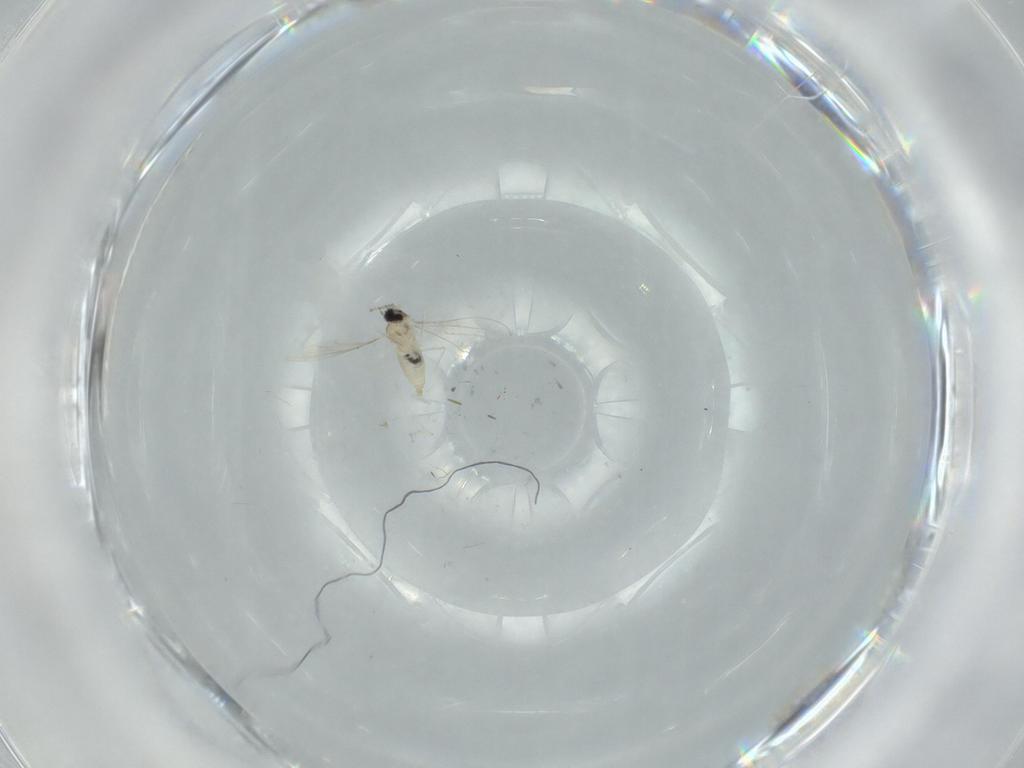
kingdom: Animalia
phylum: Arthropoda
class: Insecta
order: Diptera
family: Cecidomyiidae
